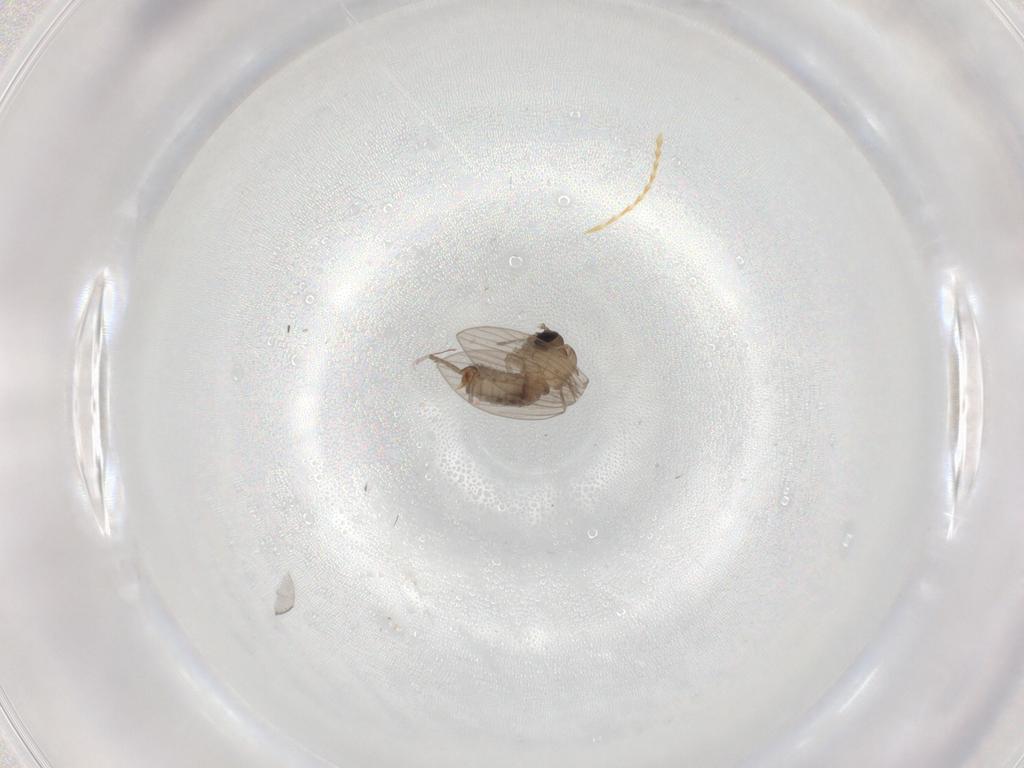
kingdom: Animalia
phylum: Arthropoda
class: Insecta
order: Diptera
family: Psychodidae
